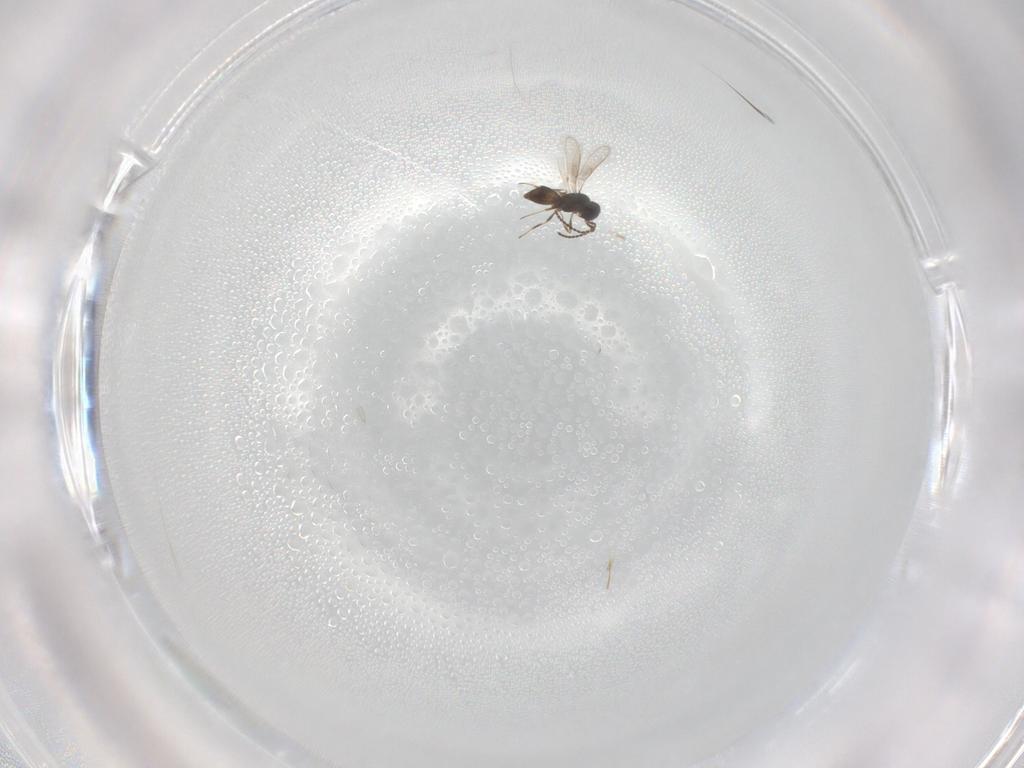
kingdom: Animalia
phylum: Arthropoda
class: Insecta
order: Hymenoptera
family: Scelionidae
